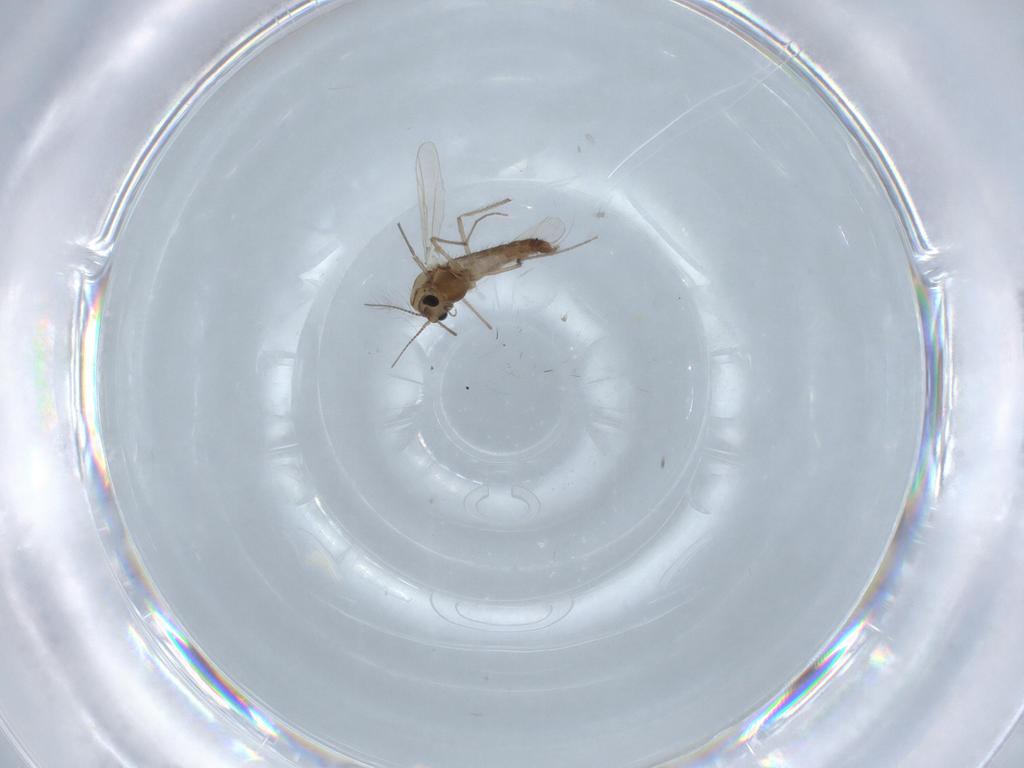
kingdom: Animalia
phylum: Arthropoda
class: Insecta
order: Diptera
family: Chironomidae
